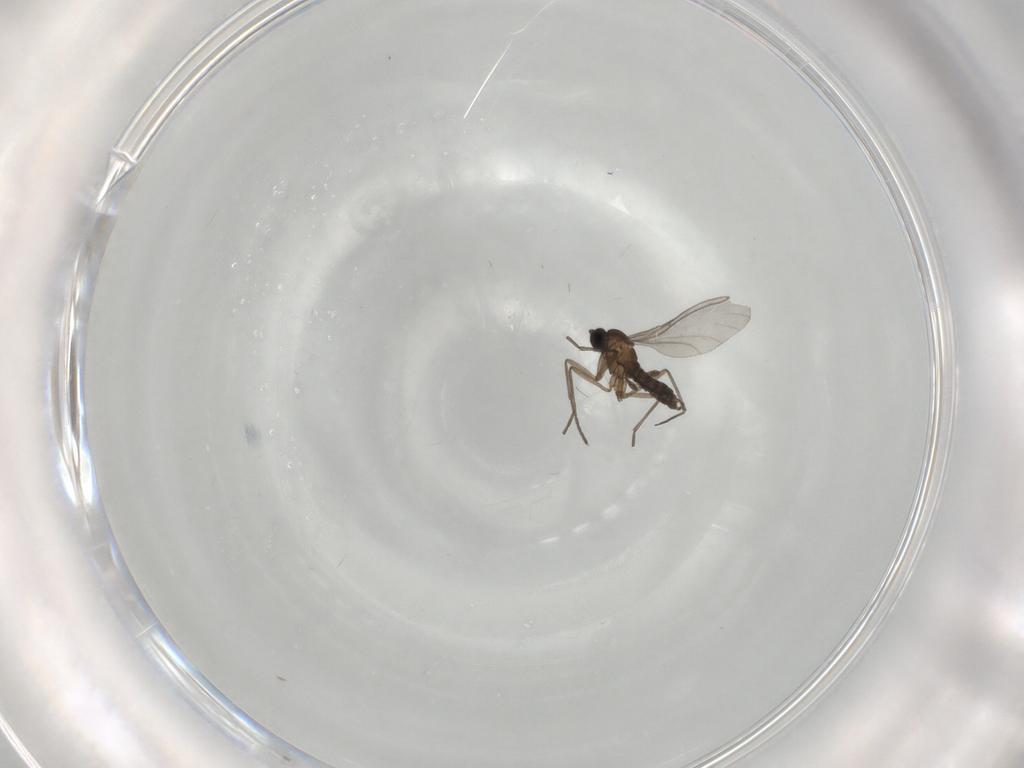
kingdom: Animalia
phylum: Arthropoda
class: Insecta
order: Diptera
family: Sciaridae
